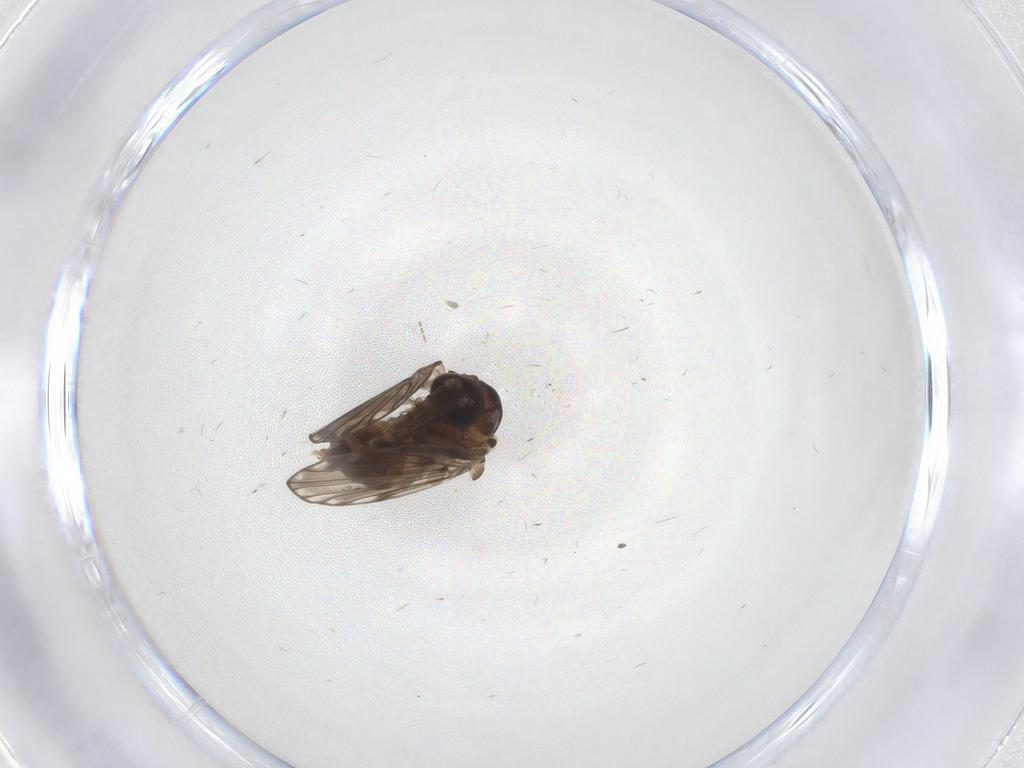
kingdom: Animalia
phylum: Arthropoda
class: Insecta
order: Diptera
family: Psychodidae
